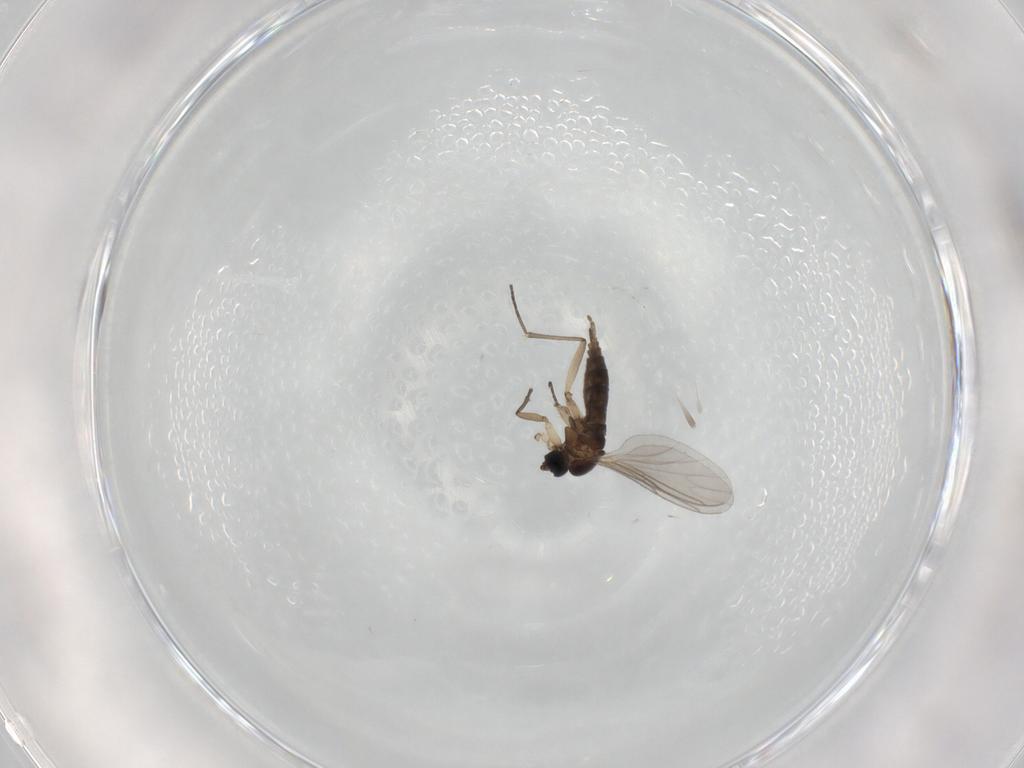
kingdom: Animalia
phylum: Arthropoda
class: Insecta
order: Diptera
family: Sciaridae
